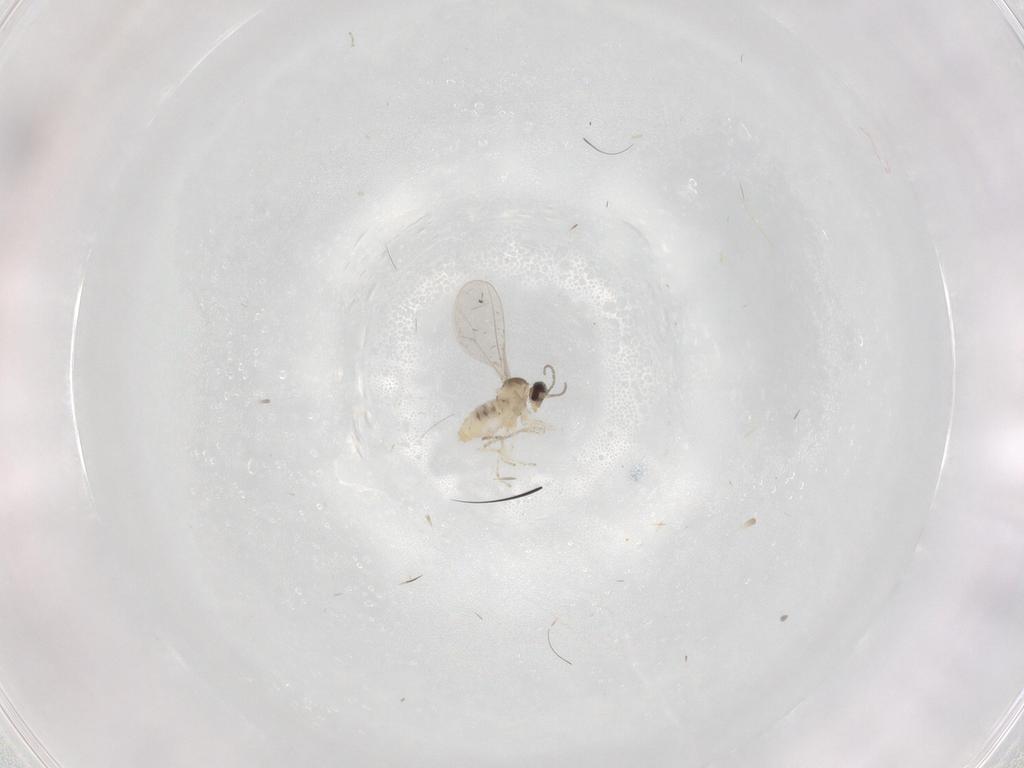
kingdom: Animalia
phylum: Arthropoda
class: Insecta
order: Diptera
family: Cecidomyiidae
